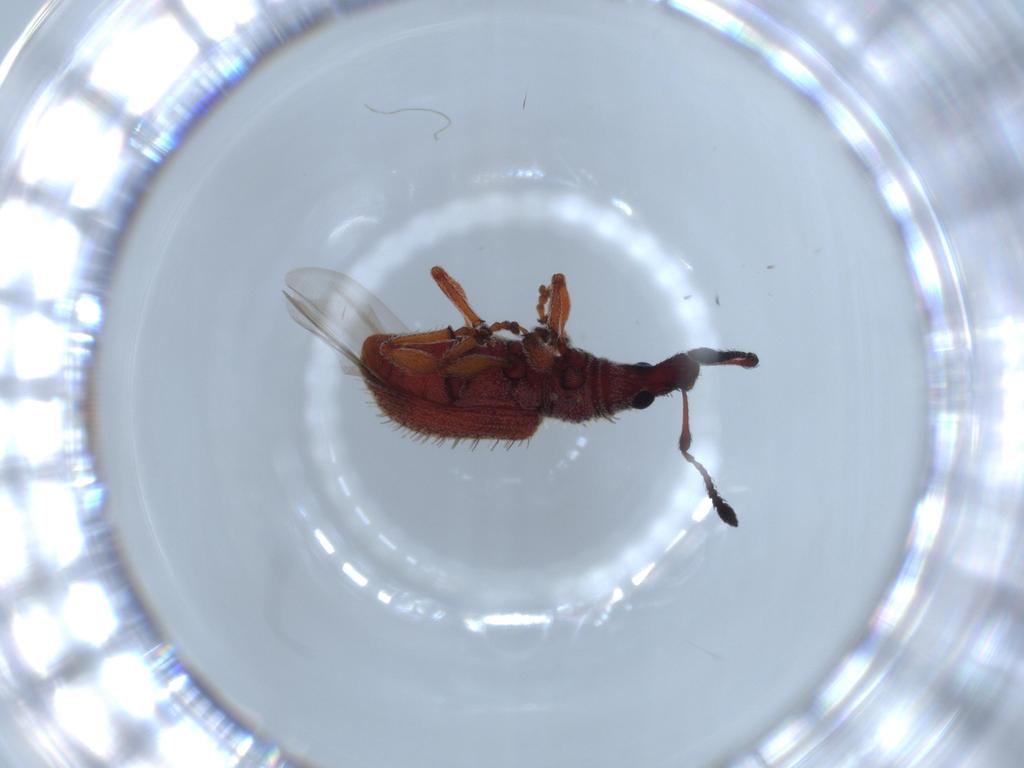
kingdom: Animalia
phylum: Arthropoda
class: Insecta
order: Coleoptera
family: Curculionidae
